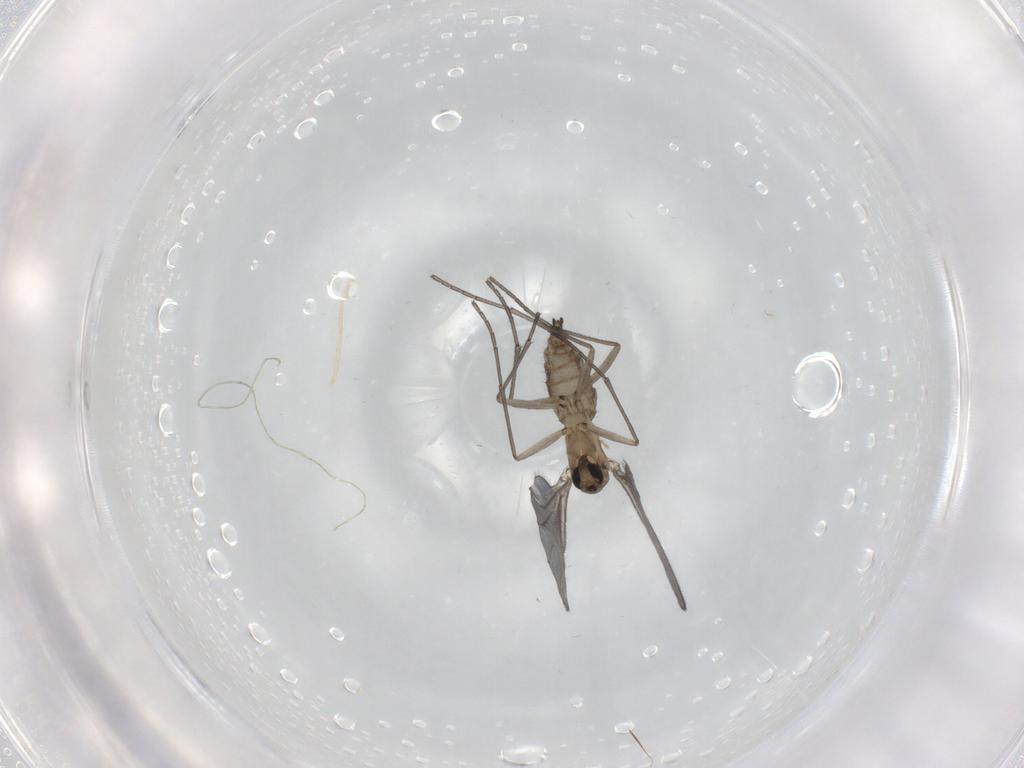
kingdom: Animalia
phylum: Arthropoda
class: Insecta
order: Diptera
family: Sciaridae
